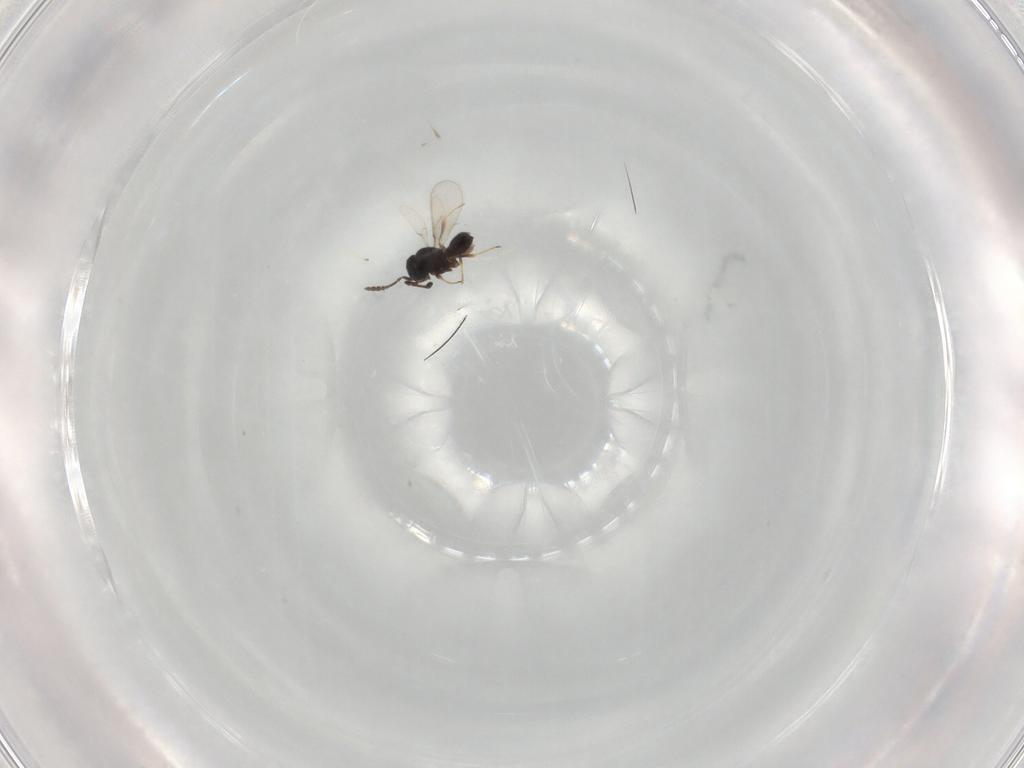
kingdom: Animalia
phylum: Arthropoda
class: Insecta
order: Hymenoptera
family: Scelionidae
